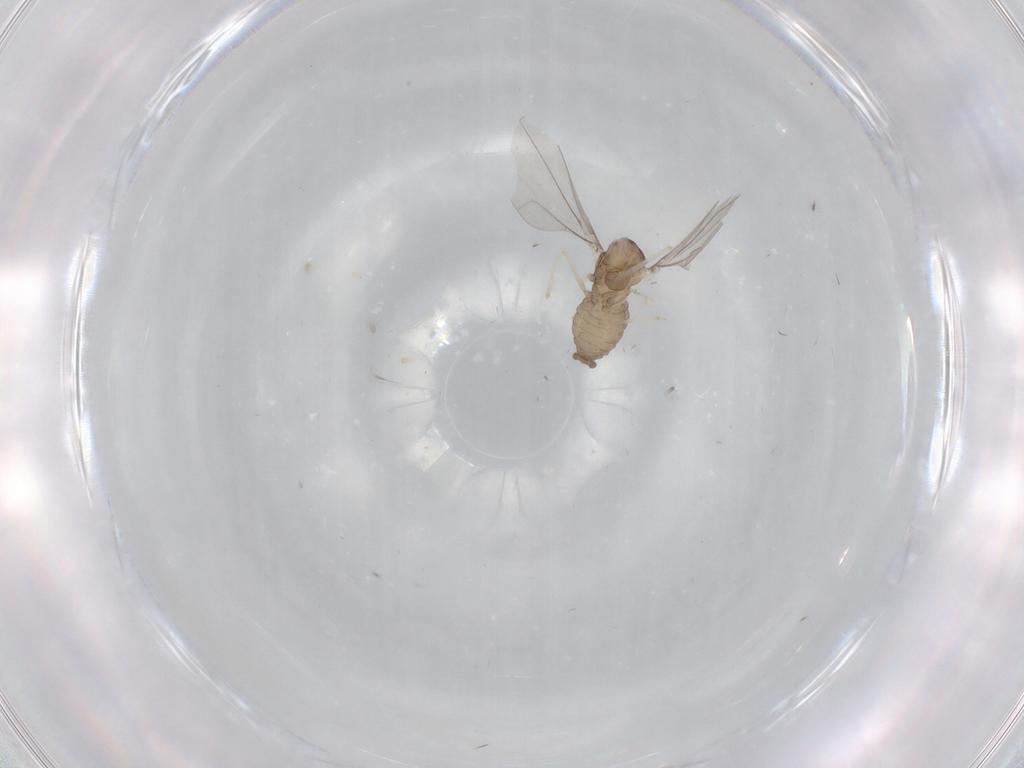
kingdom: Animalia
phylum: Arthropoda
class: Insecta
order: Diptera
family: Cecidomyiidae
